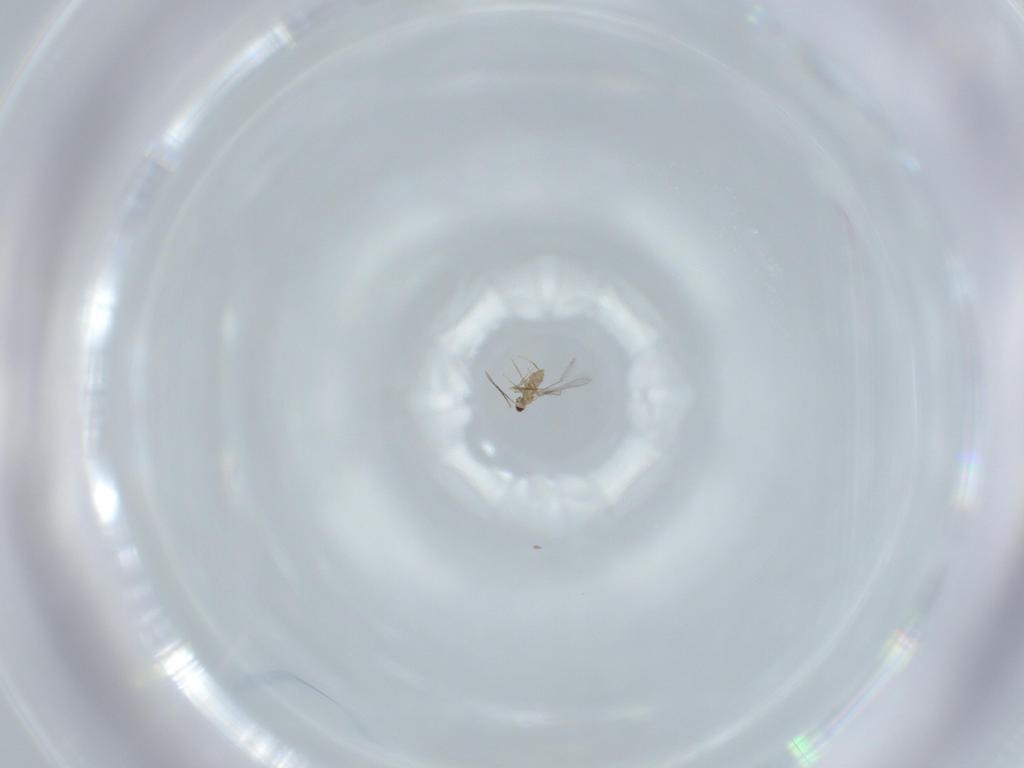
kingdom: Animalia
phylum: Arthropoda
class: Insecta
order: Hymenoptera
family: Mymaridae
